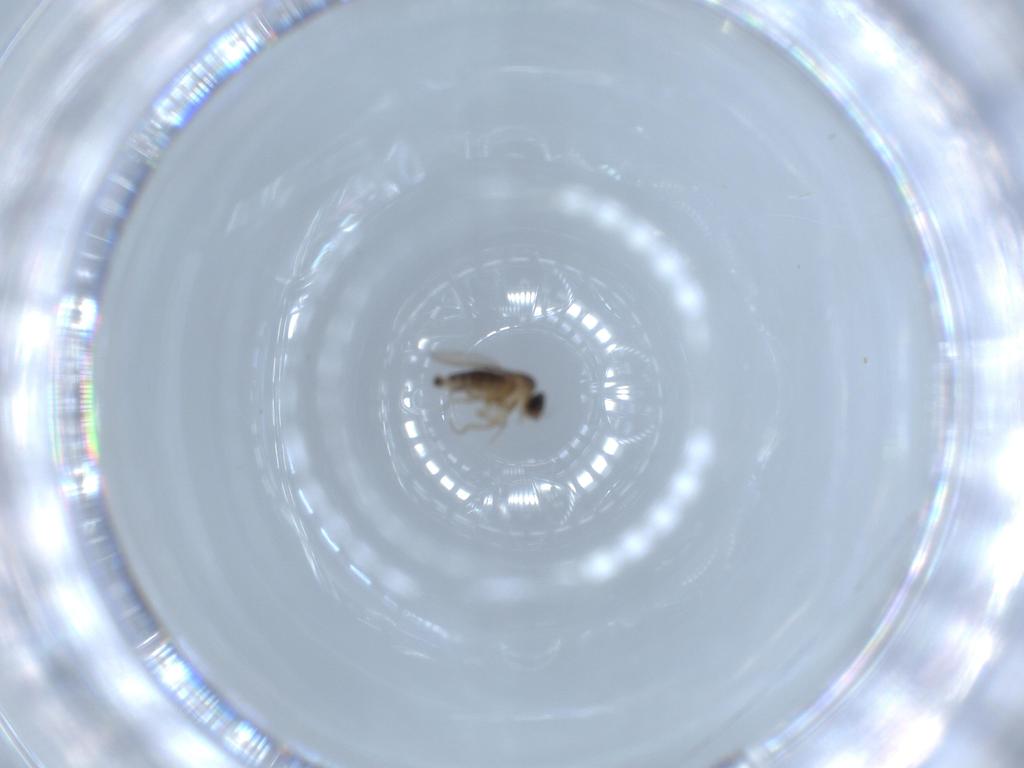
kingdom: Animalia
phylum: Arthropoda
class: Insecta
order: Diptera
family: Phoridae
